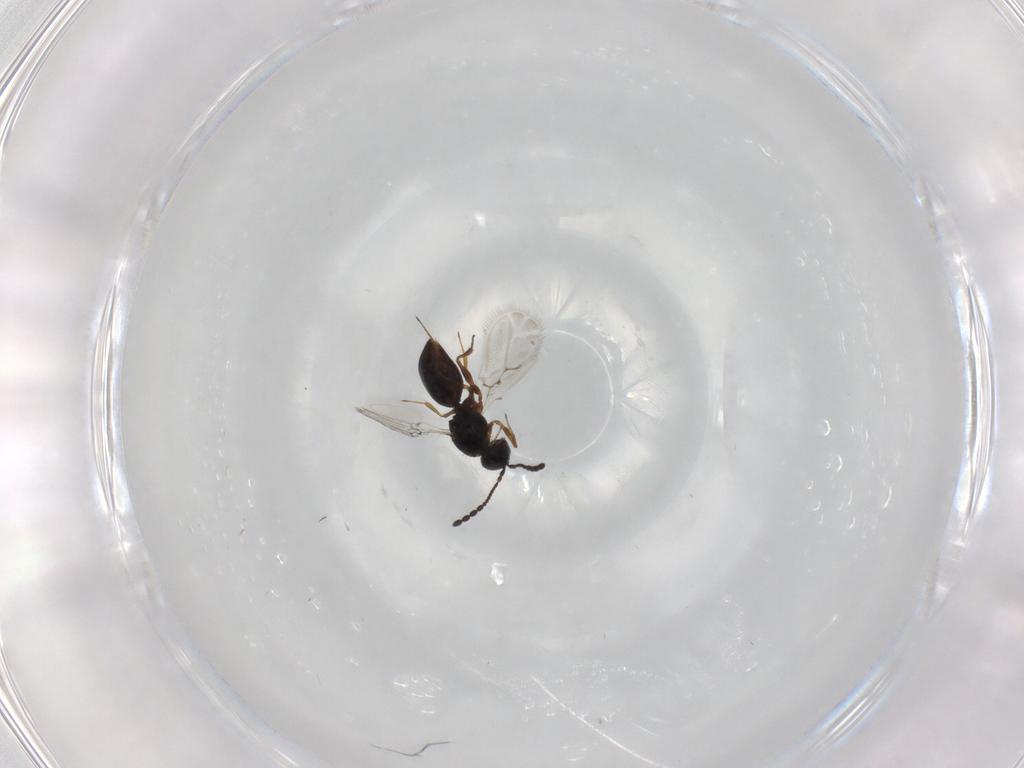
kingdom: Animalia
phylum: Arthropoda
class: Insecta
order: Hymenoptera
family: Figitidae
